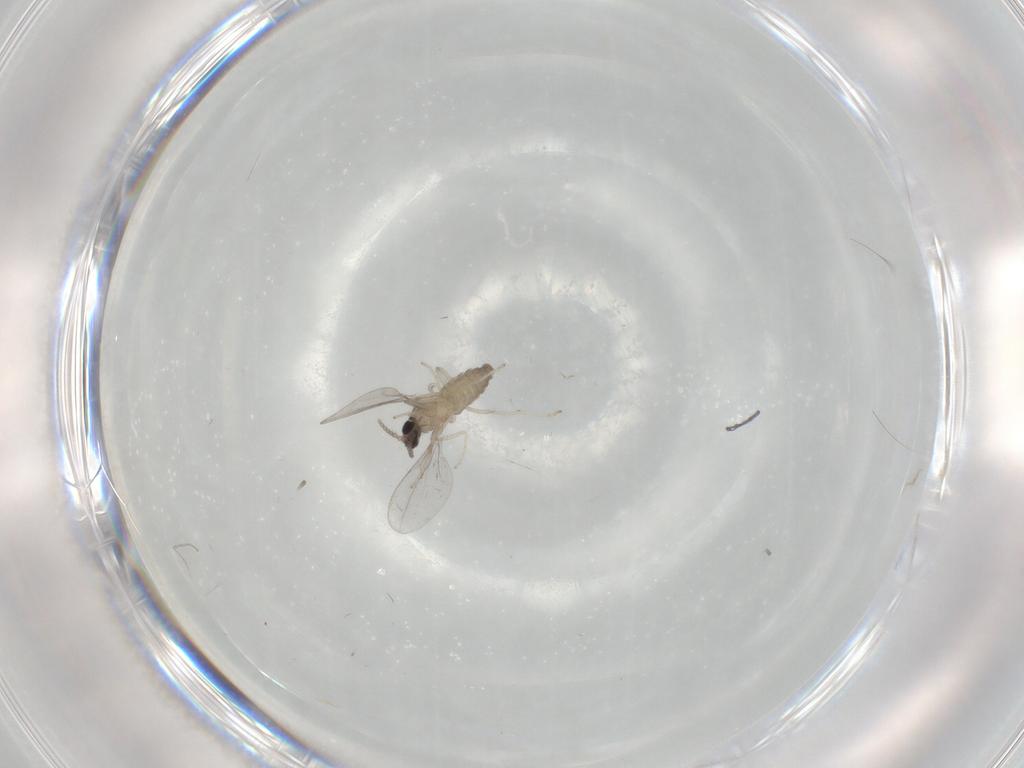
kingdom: Animalia
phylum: Arthropoda
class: Insecta
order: Diptera
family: Cecidomyiidae
